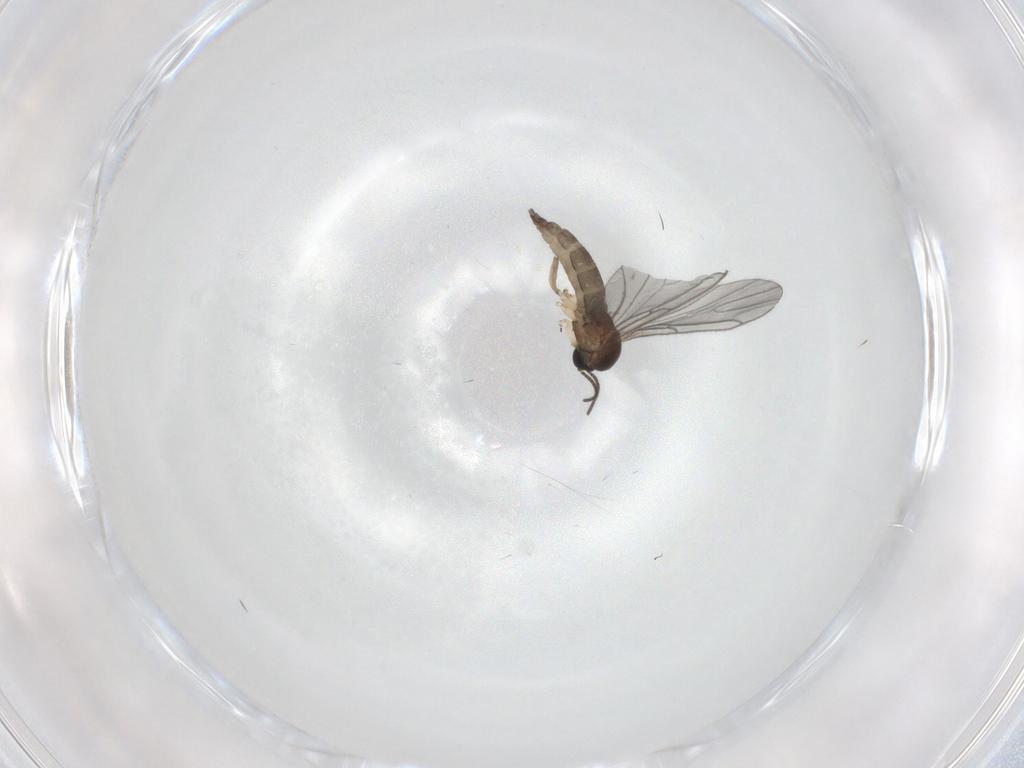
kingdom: Animalia
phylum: Arthropoda
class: Insecta
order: Diptera
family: Sciaridae
